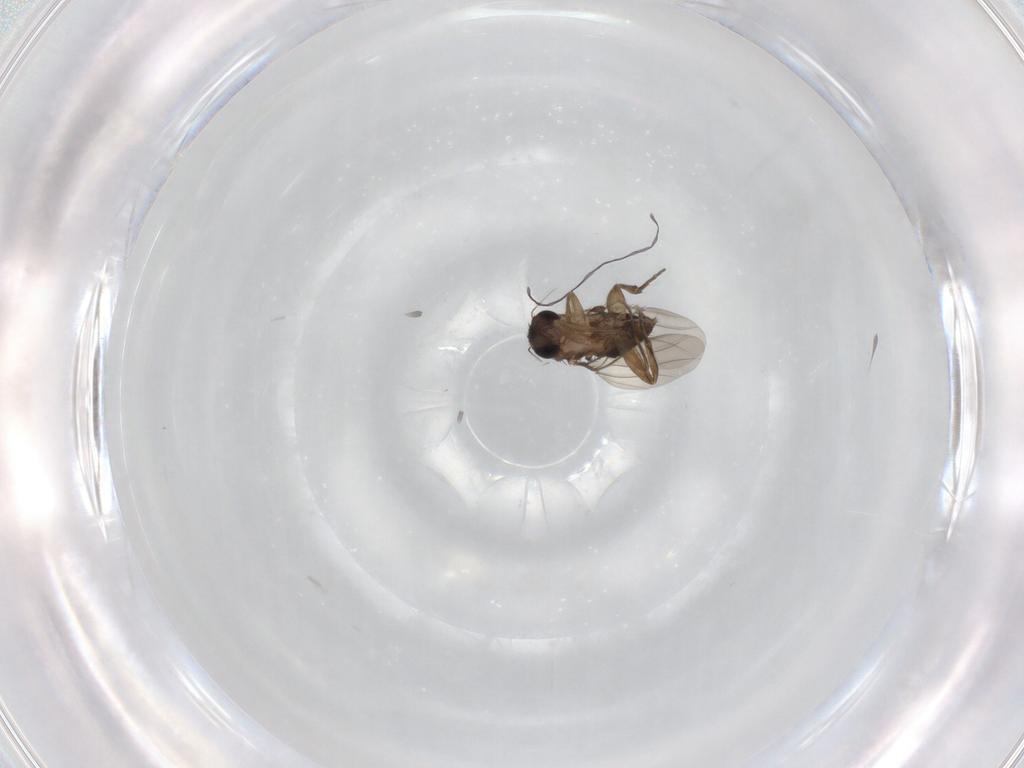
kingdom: Animalia
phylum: Arthropoda
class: Insecta
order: Diptera
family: Phoridae
